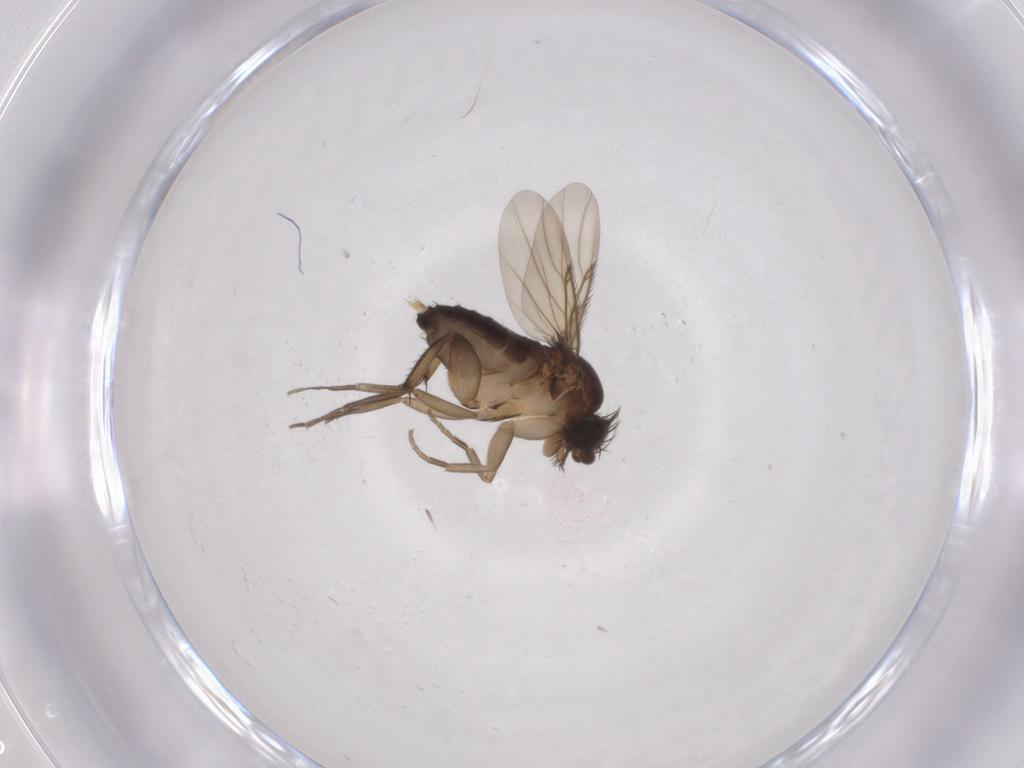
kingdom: Animalia
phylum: Arthropoda
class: Insecta
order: Diptera
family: Phoridae
